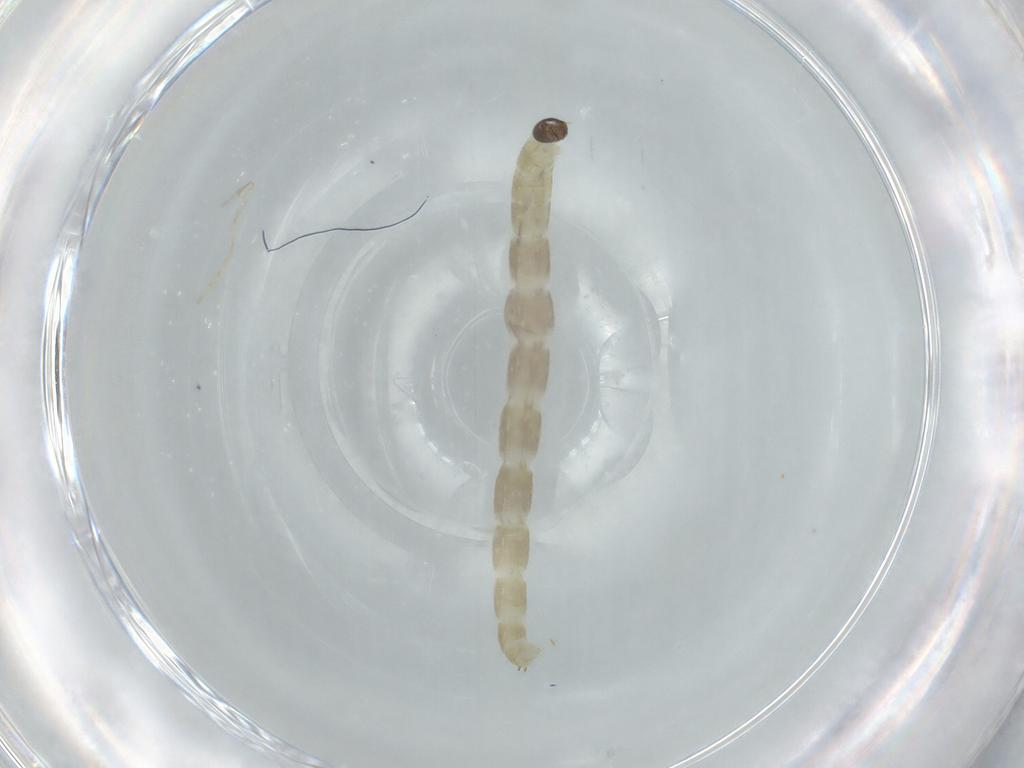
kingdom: Animalia
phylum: Arthropoda
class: Insecta
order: Diptera
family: Chironomidae
